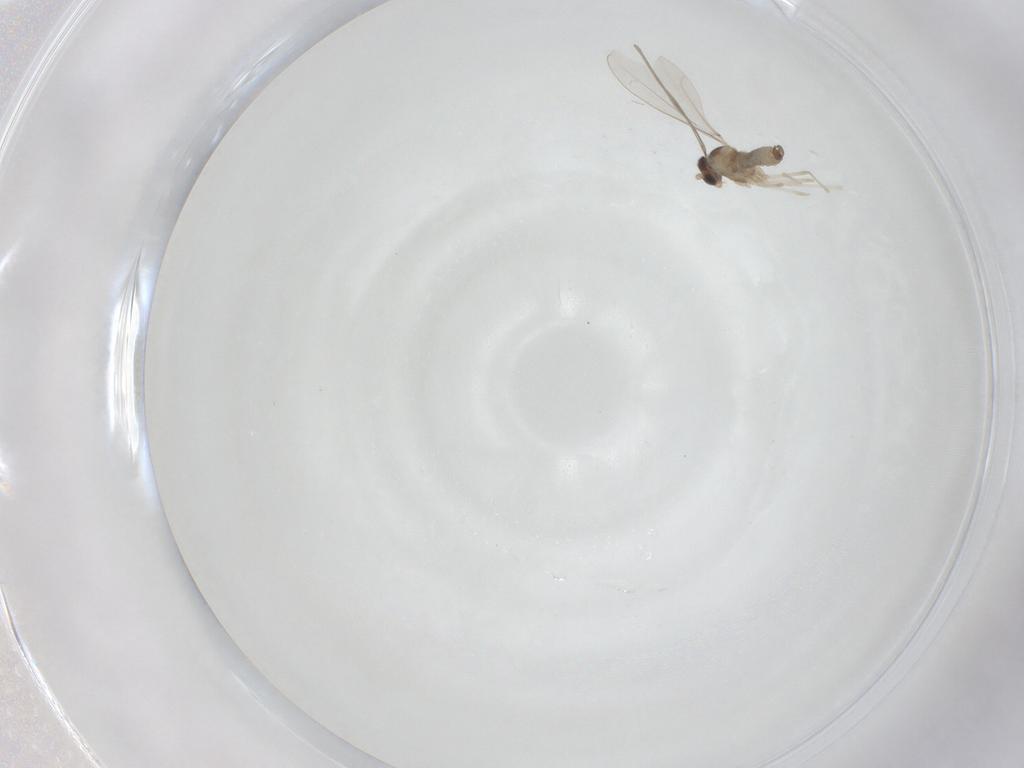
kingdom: Animalia
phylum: Arthropoda
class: Insecta
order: Diptera
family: Cecidomyiidae
